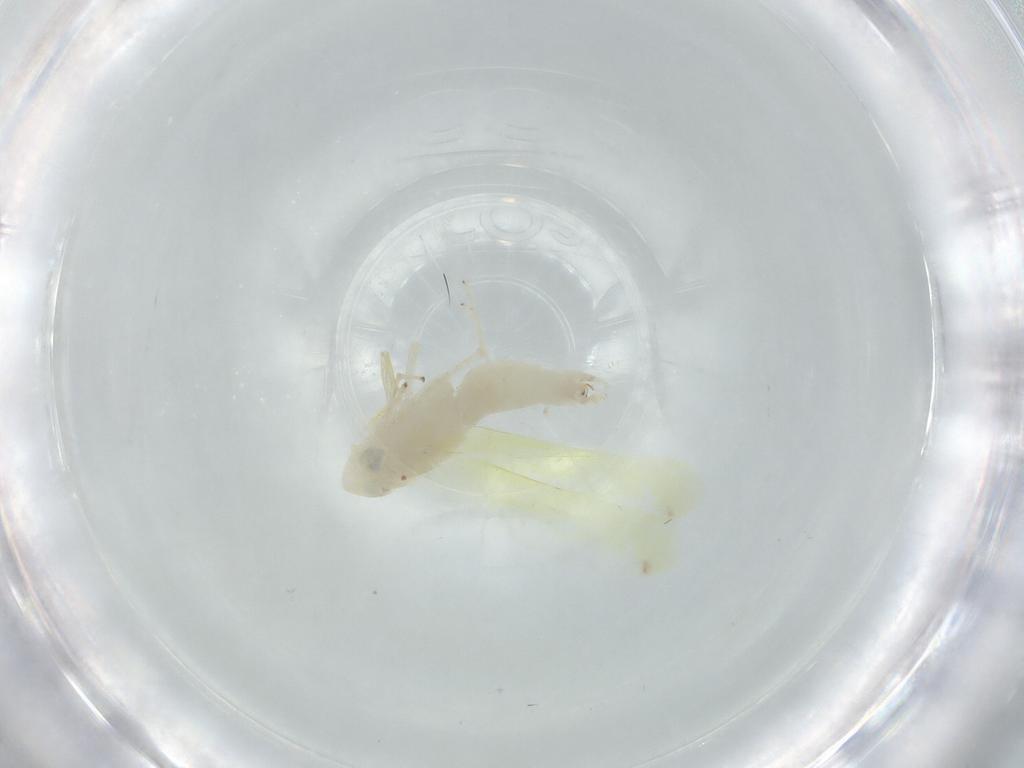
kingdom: Animalia
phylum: Arthropoda
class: Insecta
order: Hemiptera
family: Cicadellidae
